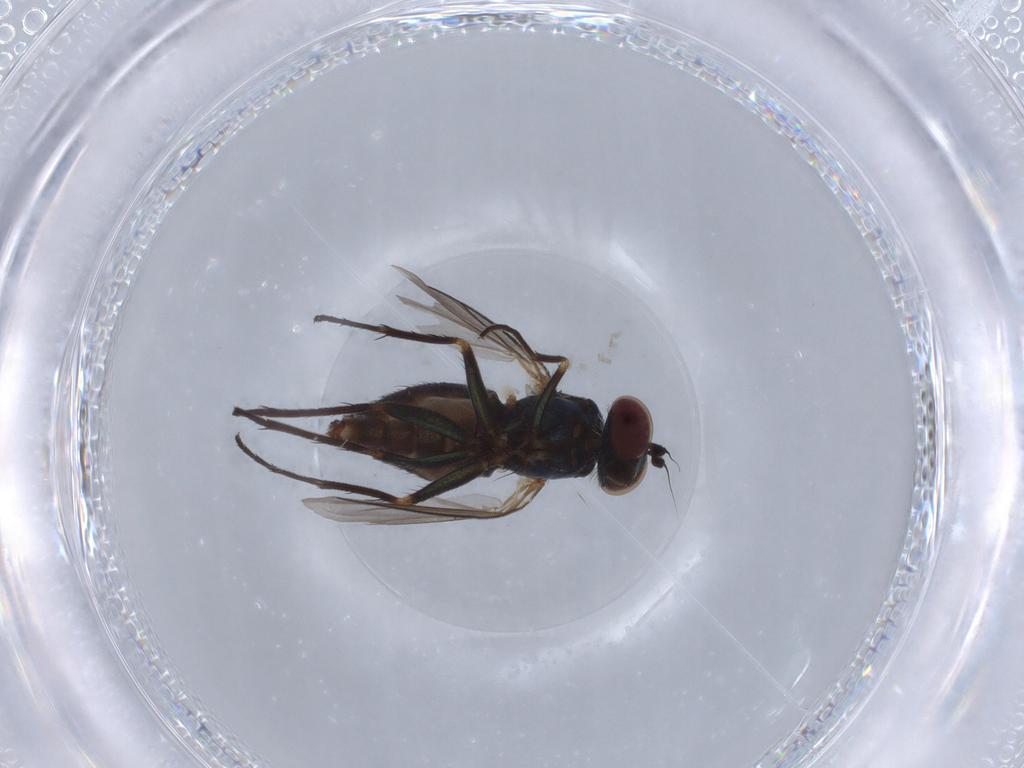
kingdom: Animalia
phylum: Arthropoda
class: Insecta
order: Diptera
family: Dolichopodidae
